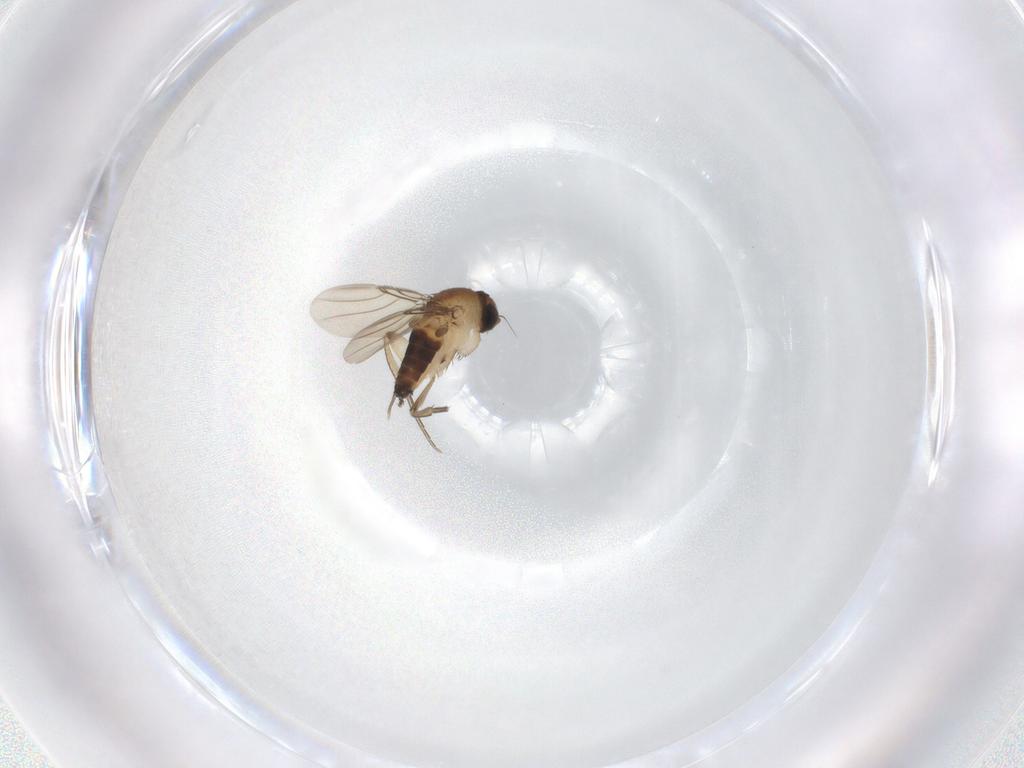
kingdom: Animalia
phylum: Arthropoda
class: Insecta
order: Diptera
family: Phoridae
